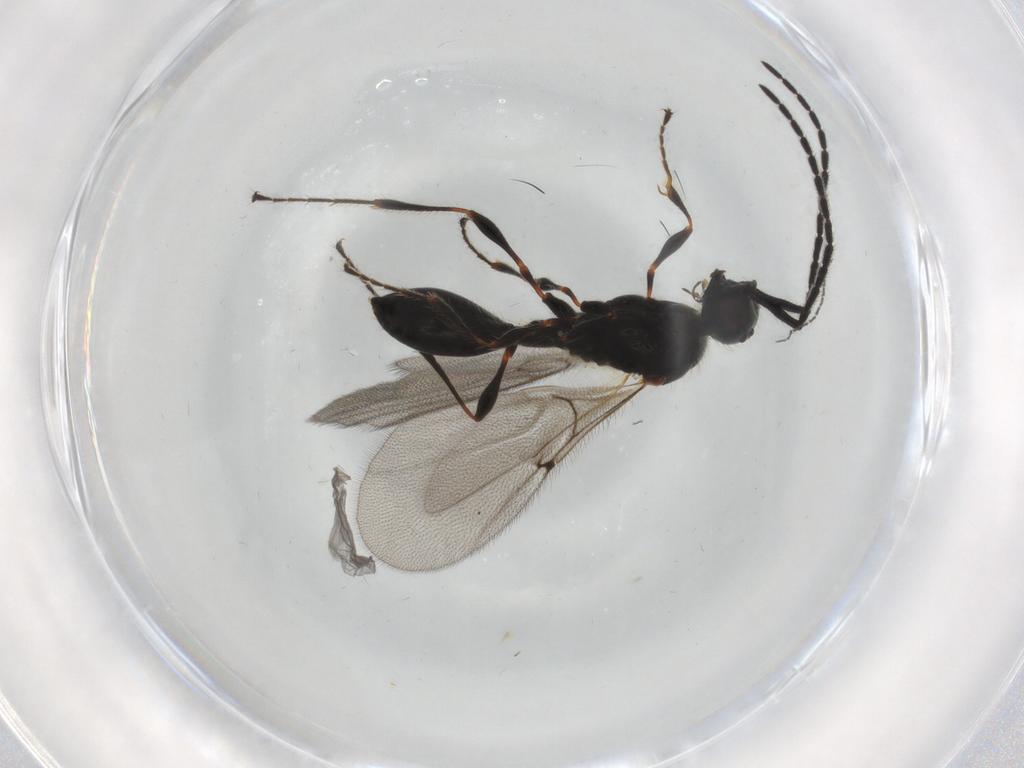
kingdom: Animalia
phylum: Arthropoda
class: Insecta
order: Hymenoptera
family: Diapriidae
